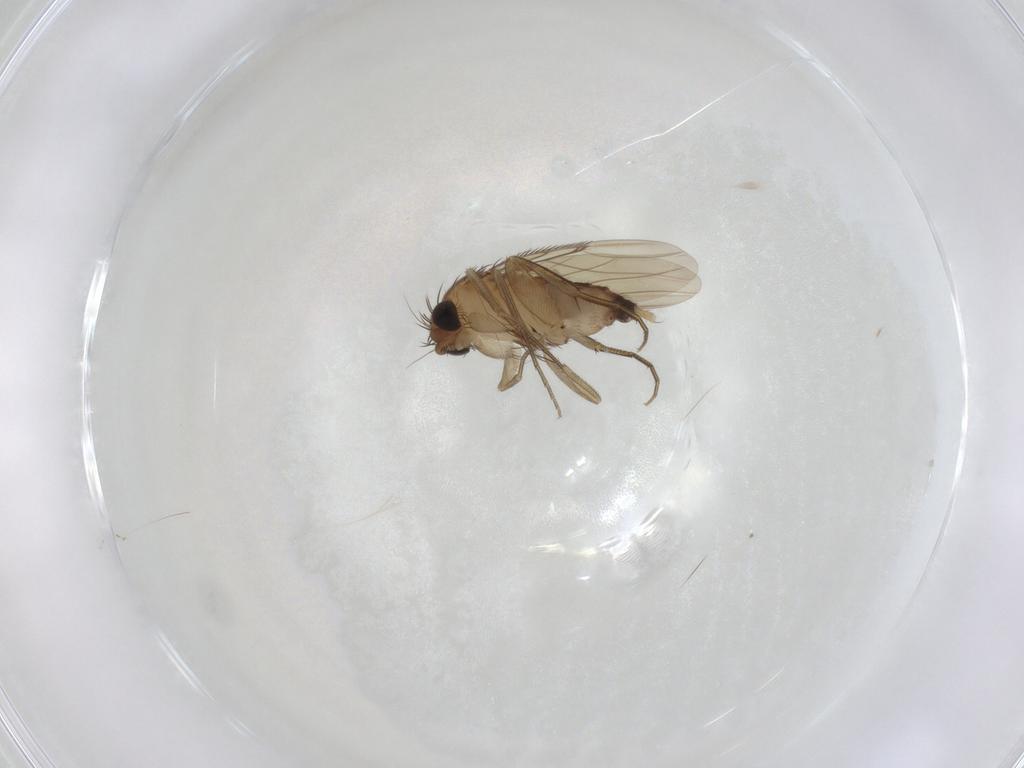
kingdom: Animalia
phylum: Arthropoda
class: Insecta
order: Diptera
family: Phoridae
